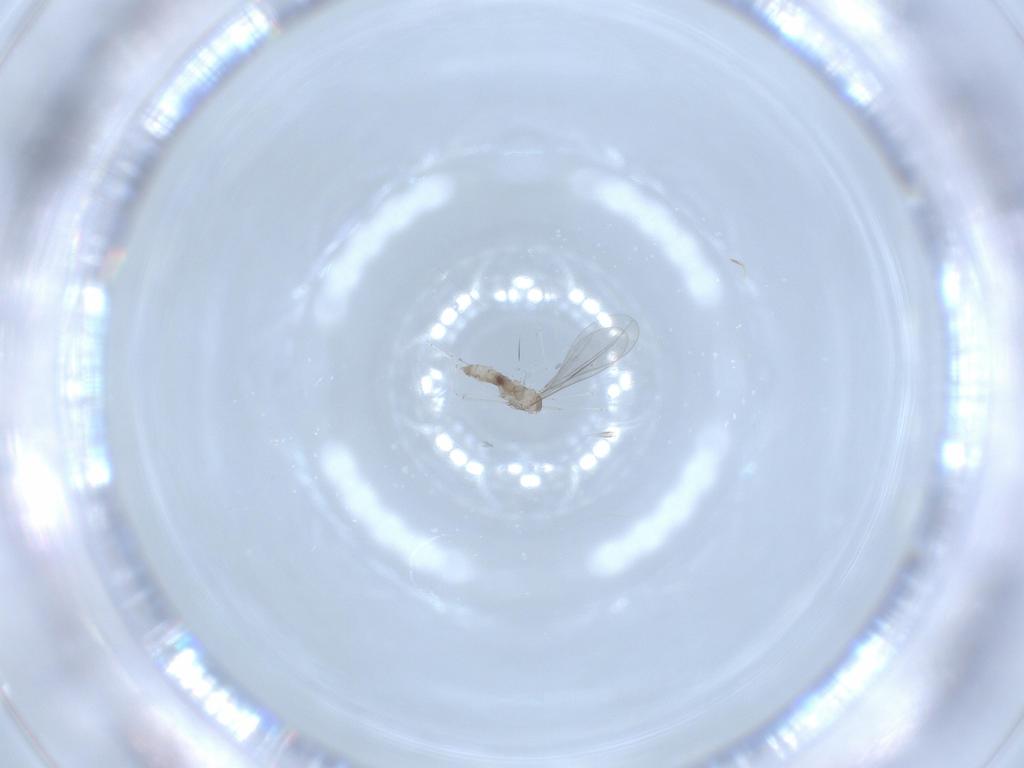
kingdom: Animalia
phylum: Arthropoda
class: Insecta
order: Diptera
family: Cecidomyiidae
